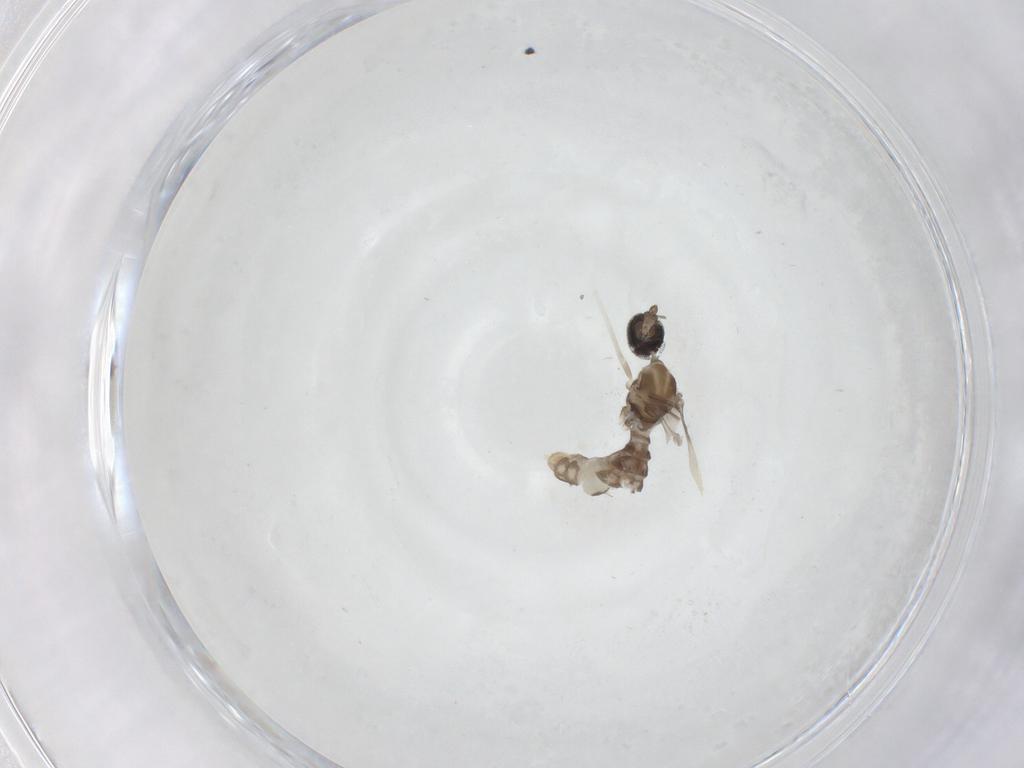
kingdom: Animalia
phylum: Arthropoda
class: Insecta
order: Diptera
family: Cecidomyiidae
